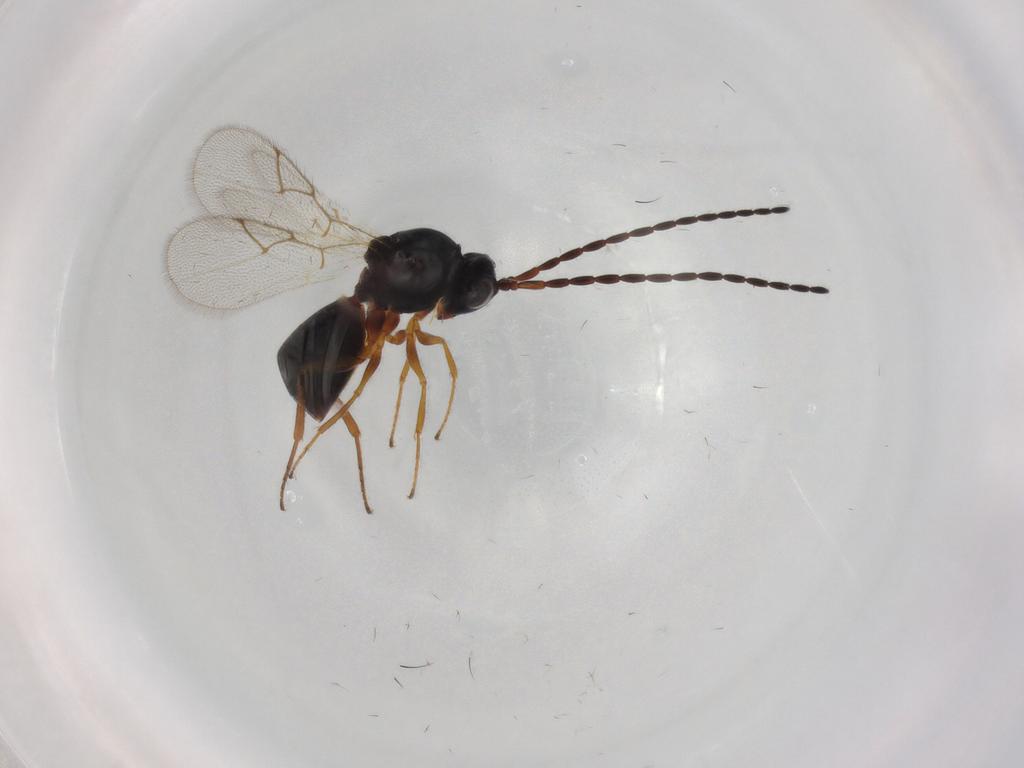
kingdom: Animalia
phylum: Arthropoda
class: Insecta
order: Hymenoptera
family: Figitidae
